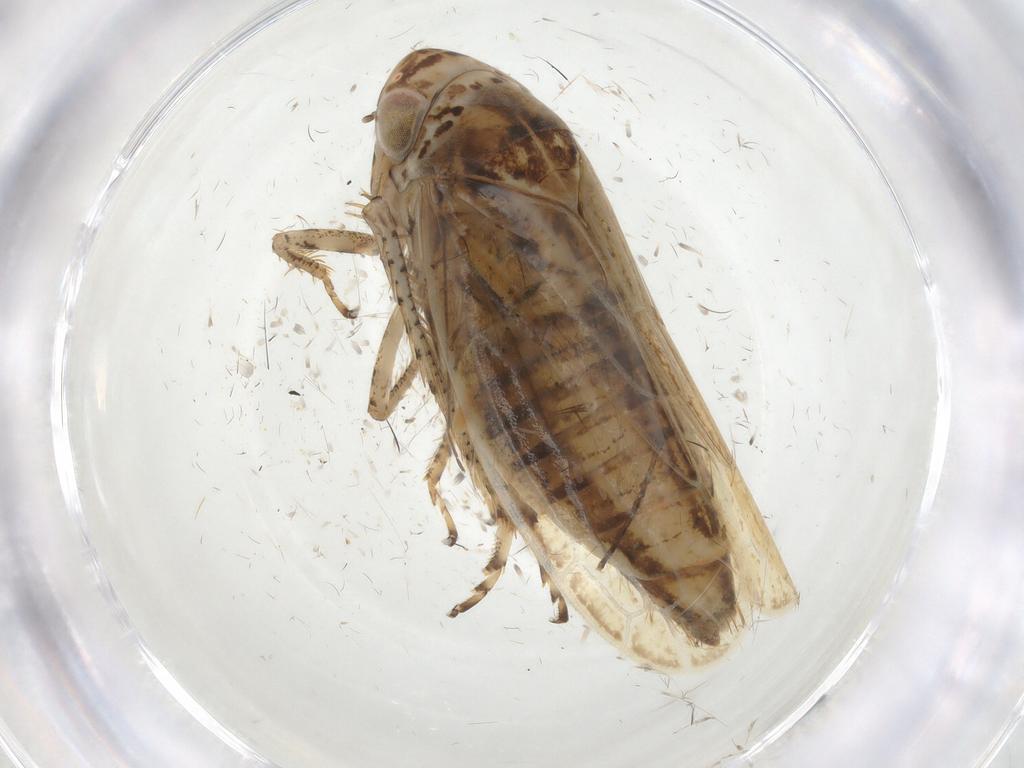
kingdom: Animalia
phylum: Arthropoda
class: Insecta
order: Hemiptera
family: Cicadellidae
